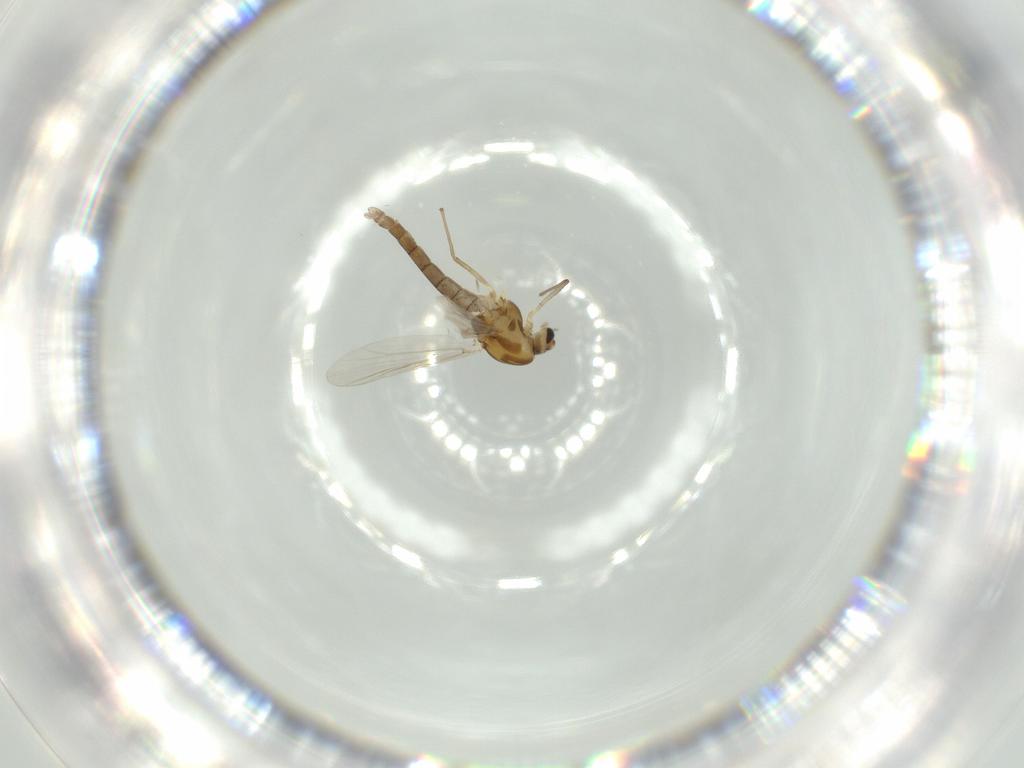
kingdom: Animalia
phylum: Arthropoda
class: Insecta
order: Diptera
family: Chironomidae
